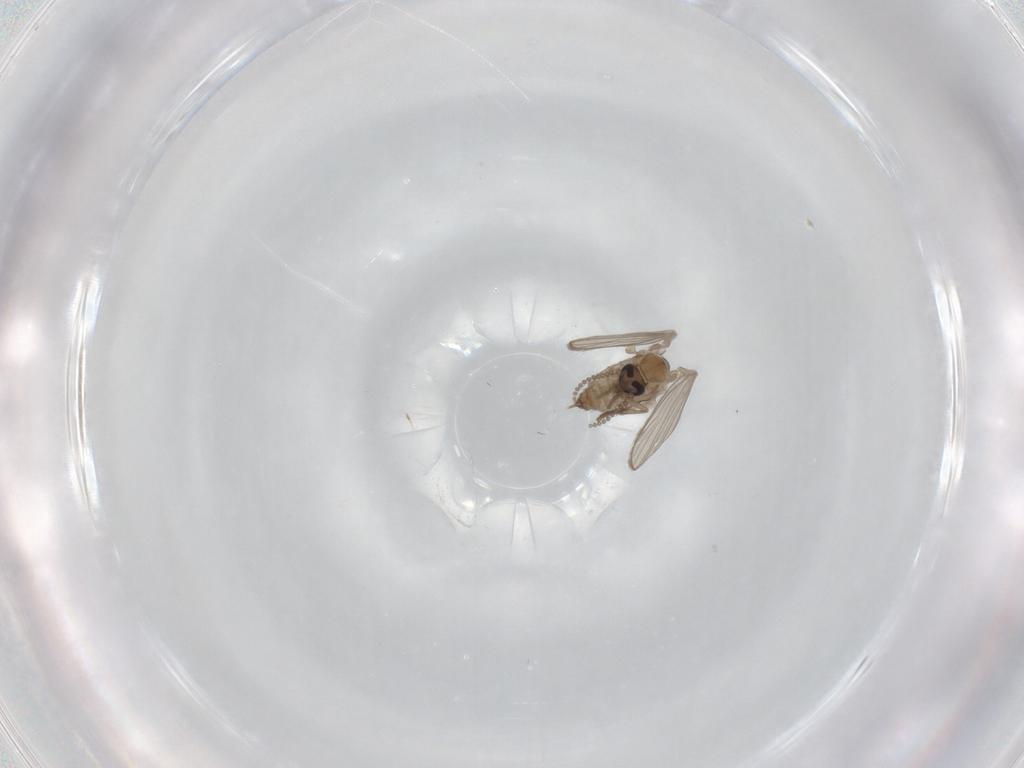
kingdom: Animalia
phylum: Arthropoda
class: Insecta
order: Diptera
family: Psychodidae
